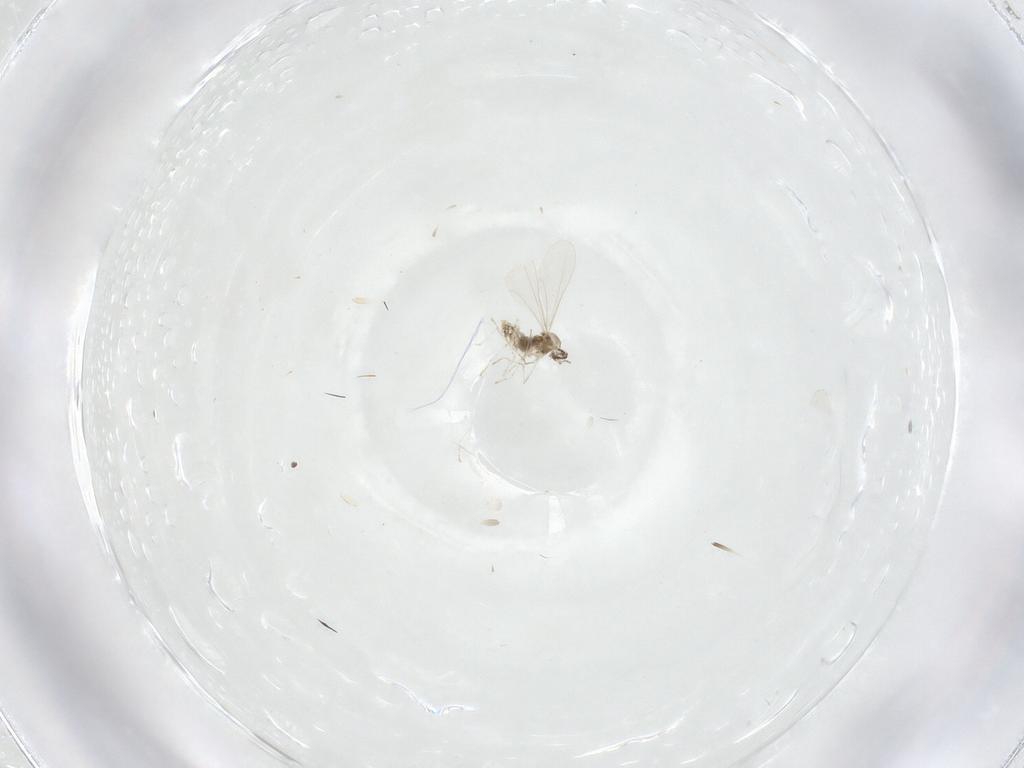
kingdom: Animalia
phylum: Arthropoda
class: Insecta
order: Diptera
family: Cecidomyiidae
